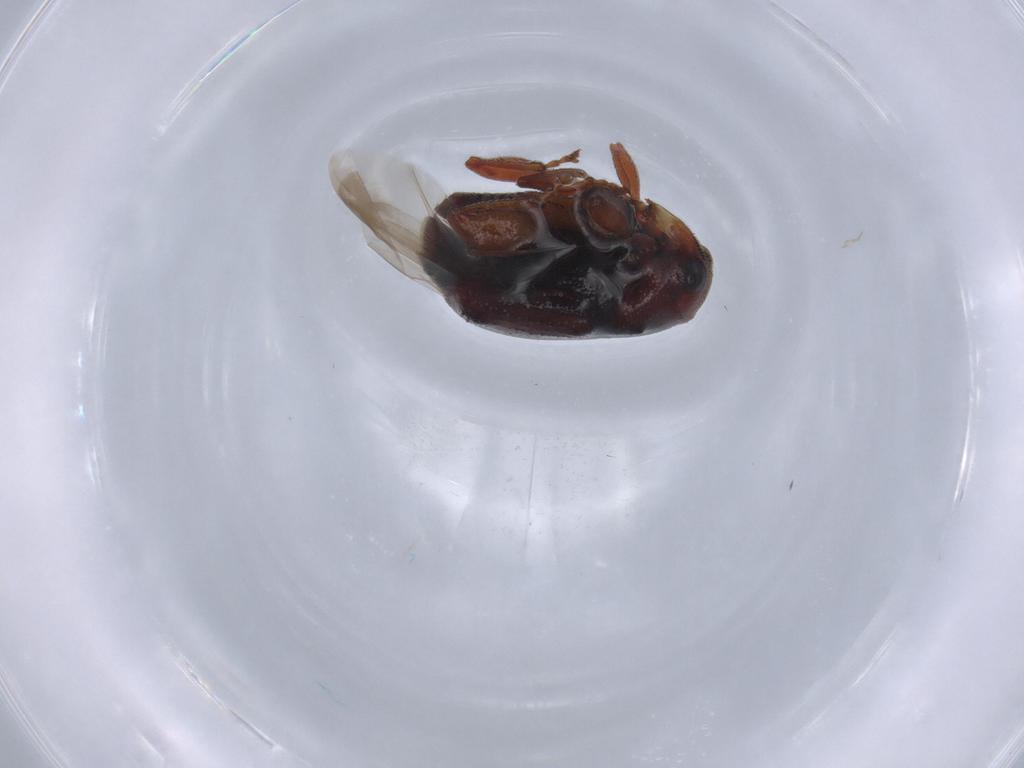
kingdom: Animalia
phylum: Arthropoda
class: Insecta
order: Coleoptera
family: Curculionidae
